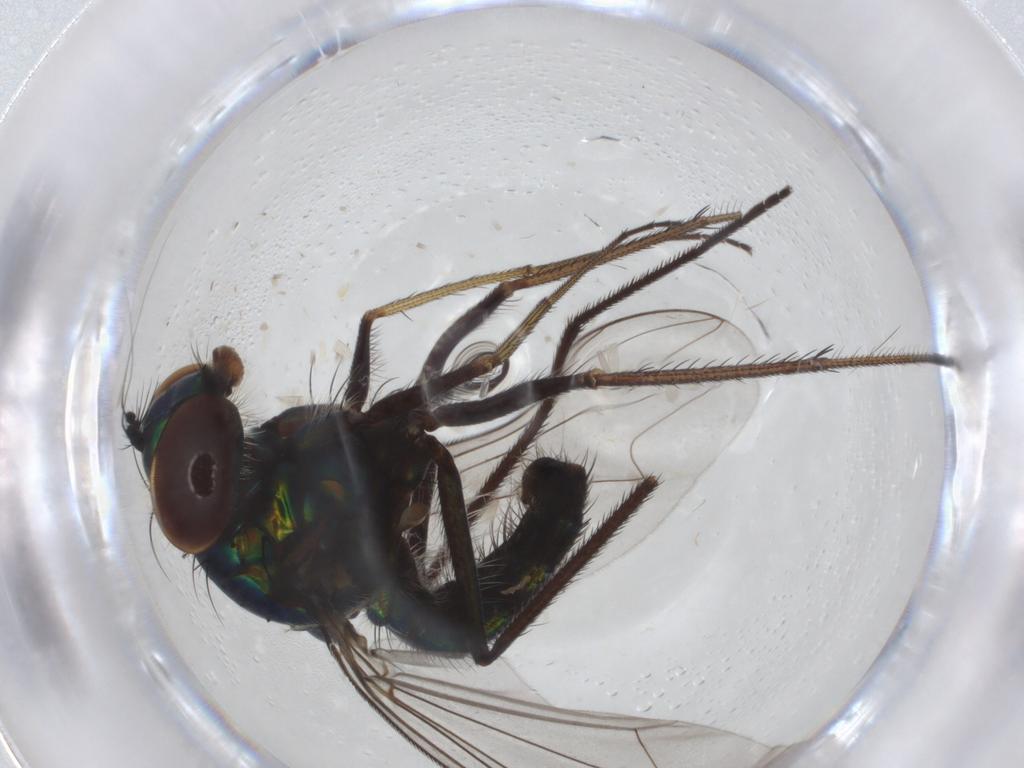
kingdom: Animalia
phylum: Arthropoda
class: Insecta
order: Diptera
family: Dolichopodidae
